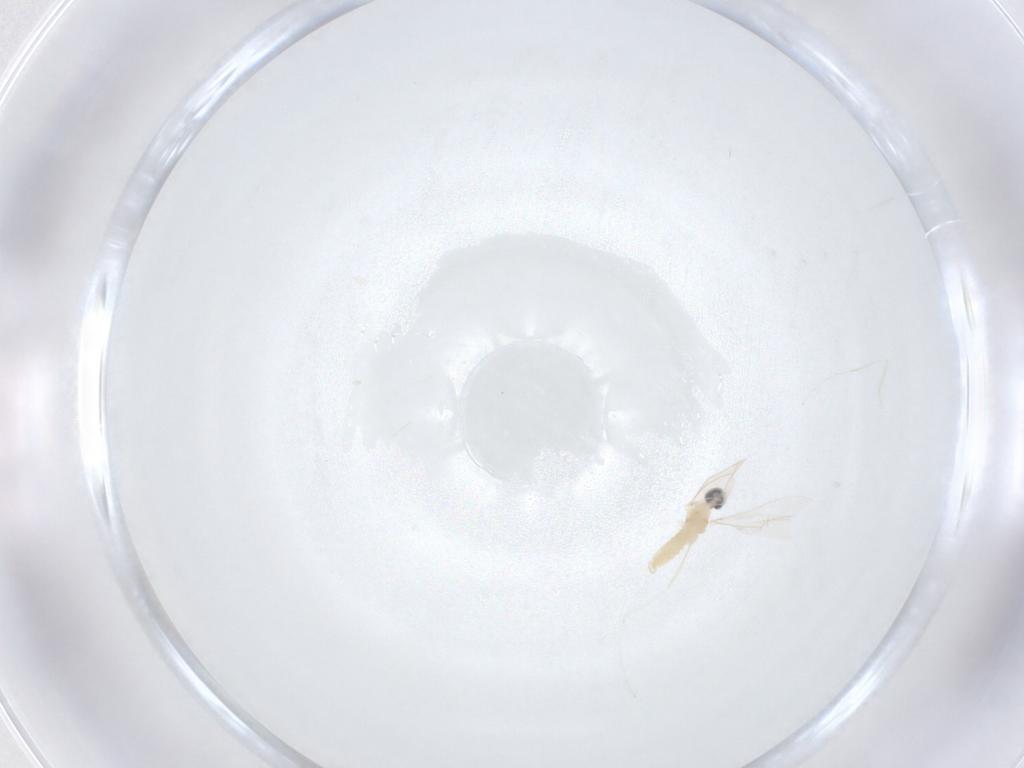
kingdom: Animalia
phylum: Arthropoda
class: Insecta
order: Diptera
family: Cecidomyiidae
